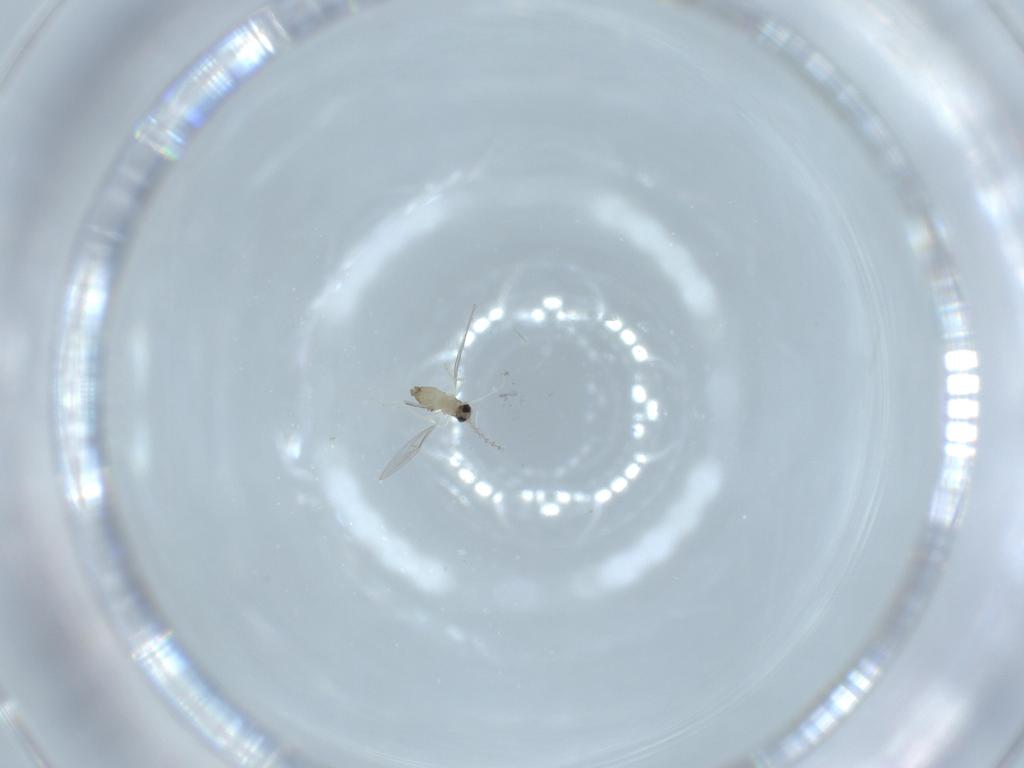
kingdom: Animalia
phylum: Arthropoda
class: Insecta
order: Diptera
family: Cecidomyiidae
